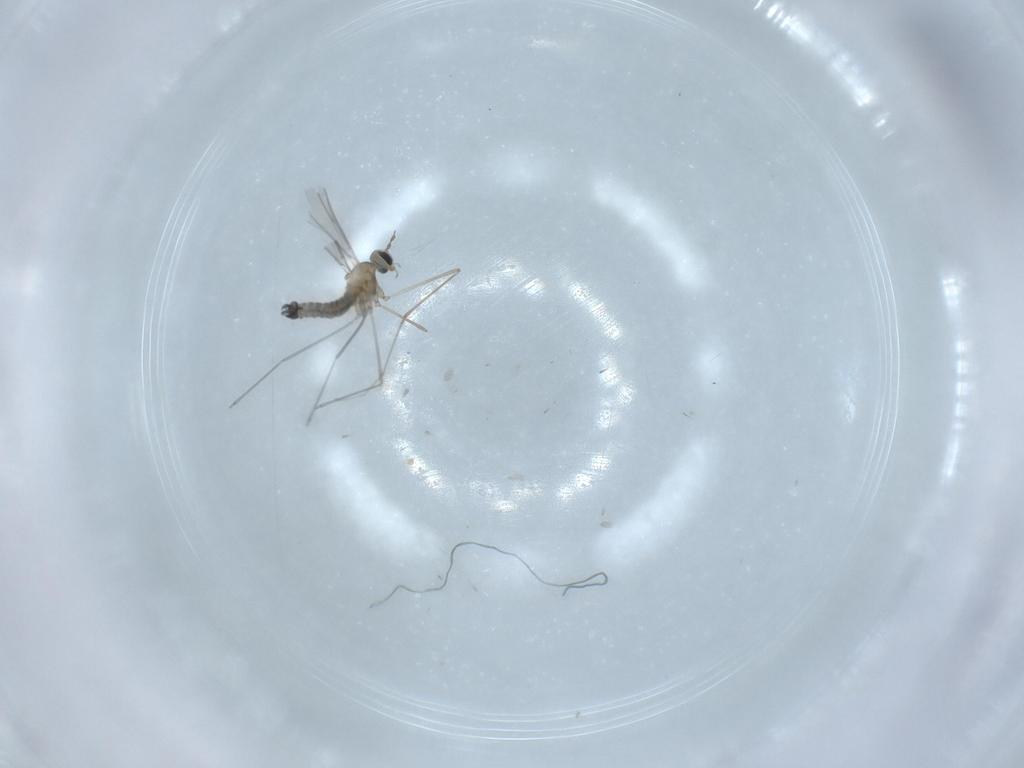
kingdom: Animalia
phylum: Arthropoda
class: Insecta
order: Diptera
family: Cecidomyiidae
